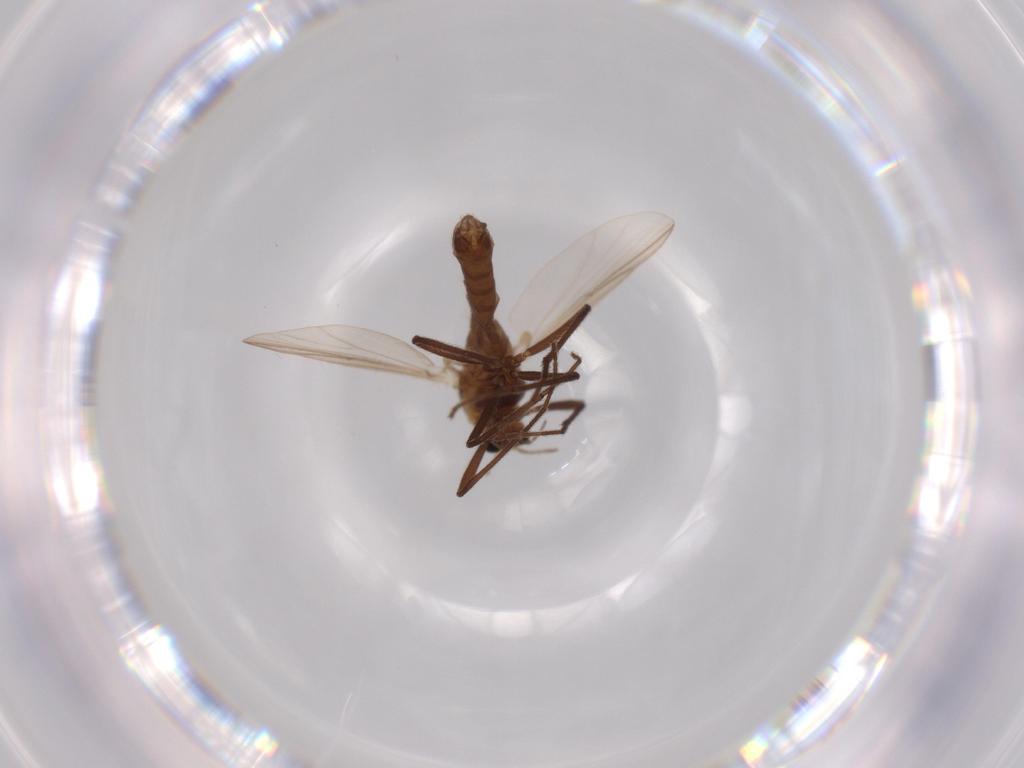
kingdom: Animalia
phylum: Arthropoda
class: Insecta
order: Diptera
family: Chironomidae
